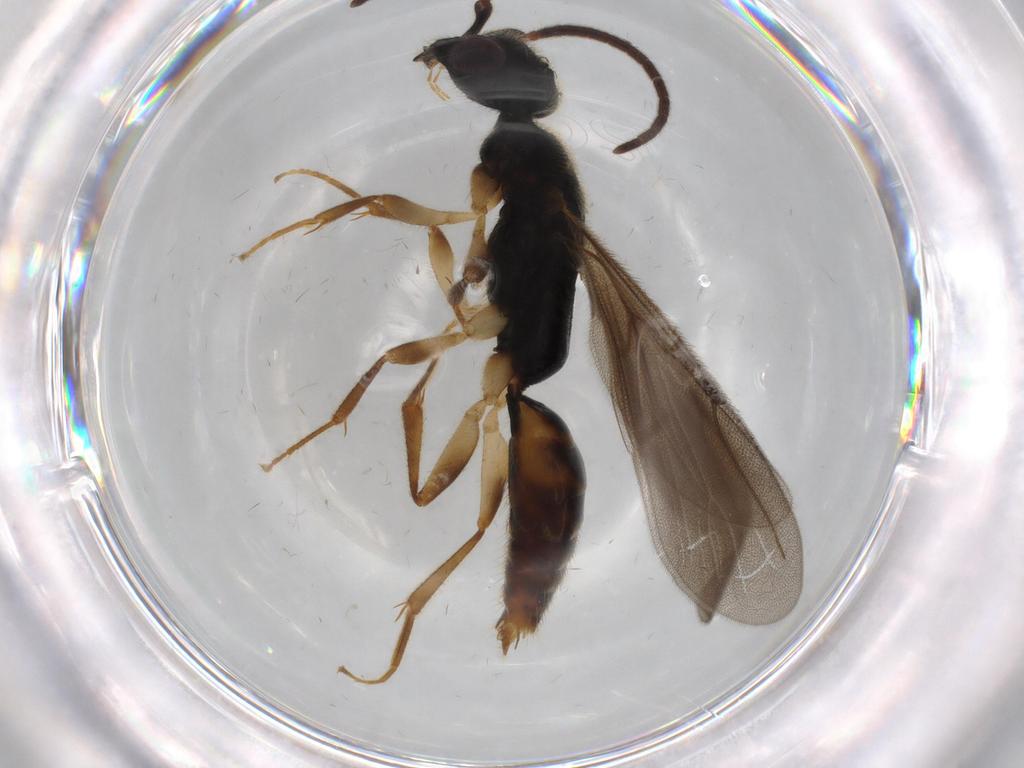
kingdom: Animalia
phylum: Arthropoda
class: Insecta
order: Hymenoptera
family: Bethylidae
